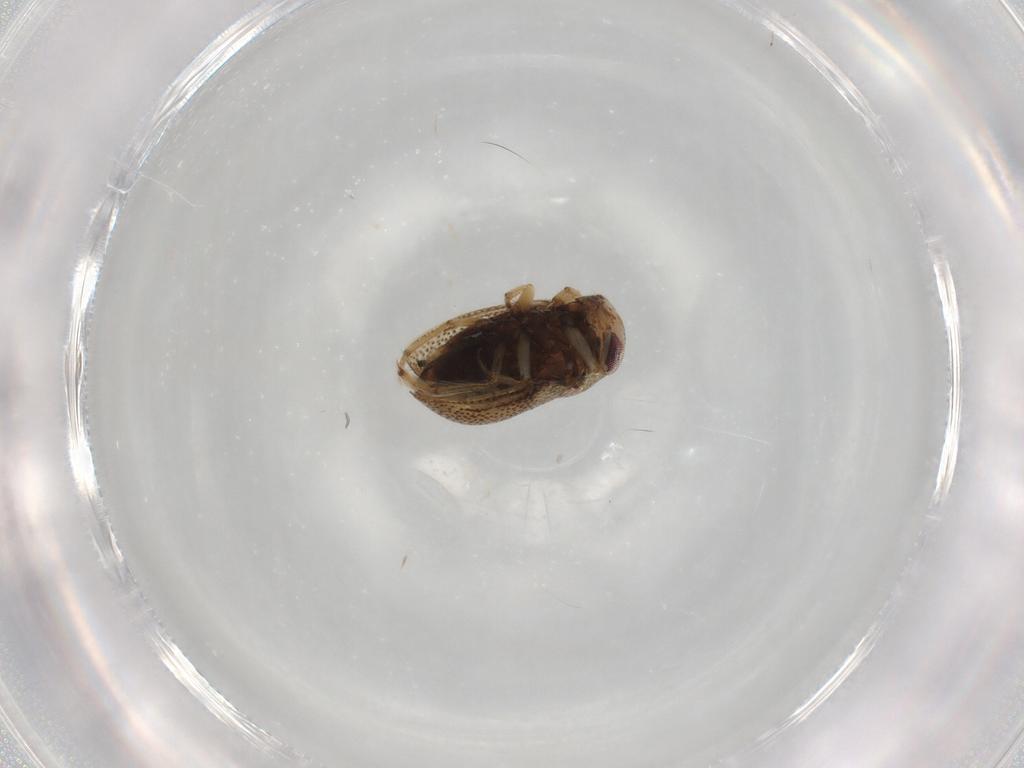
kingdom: Animalia
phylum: Arthropoda
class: Insecta
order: Hemiptera
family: Pleidae
